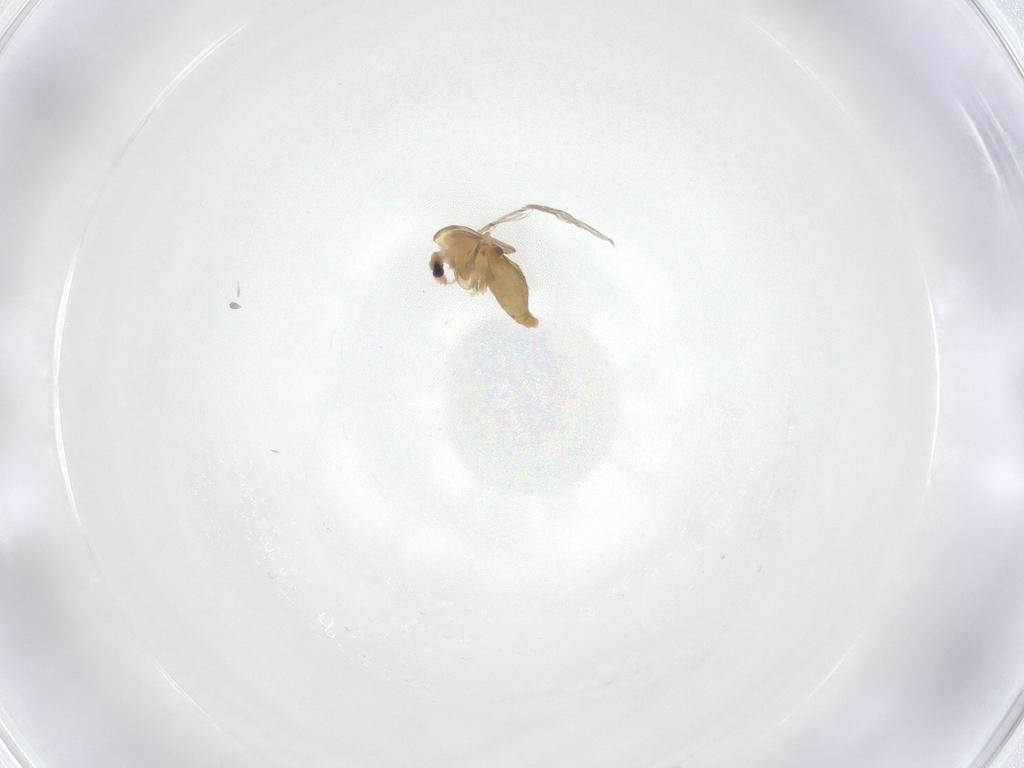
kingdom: Animalia
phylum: Arthropoda
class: Insecta
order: Diptera
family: Chironomidae
